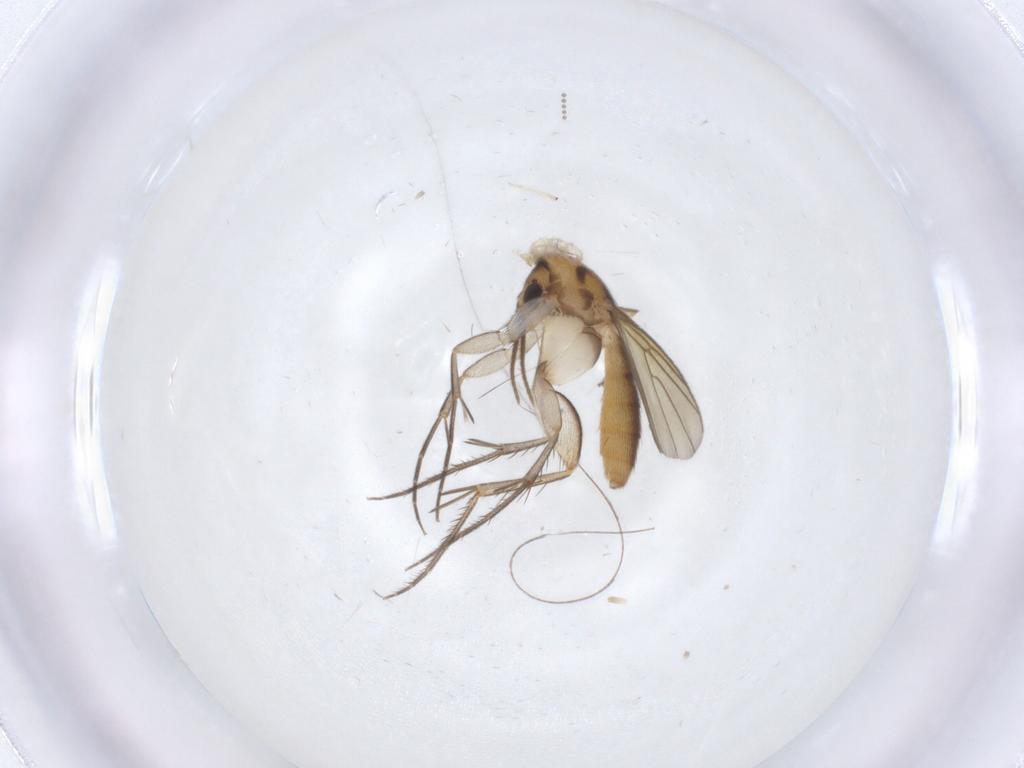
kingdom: Animalia
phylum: Arthropoda
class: Insecta
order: Diptera
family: Mycetophilidae
